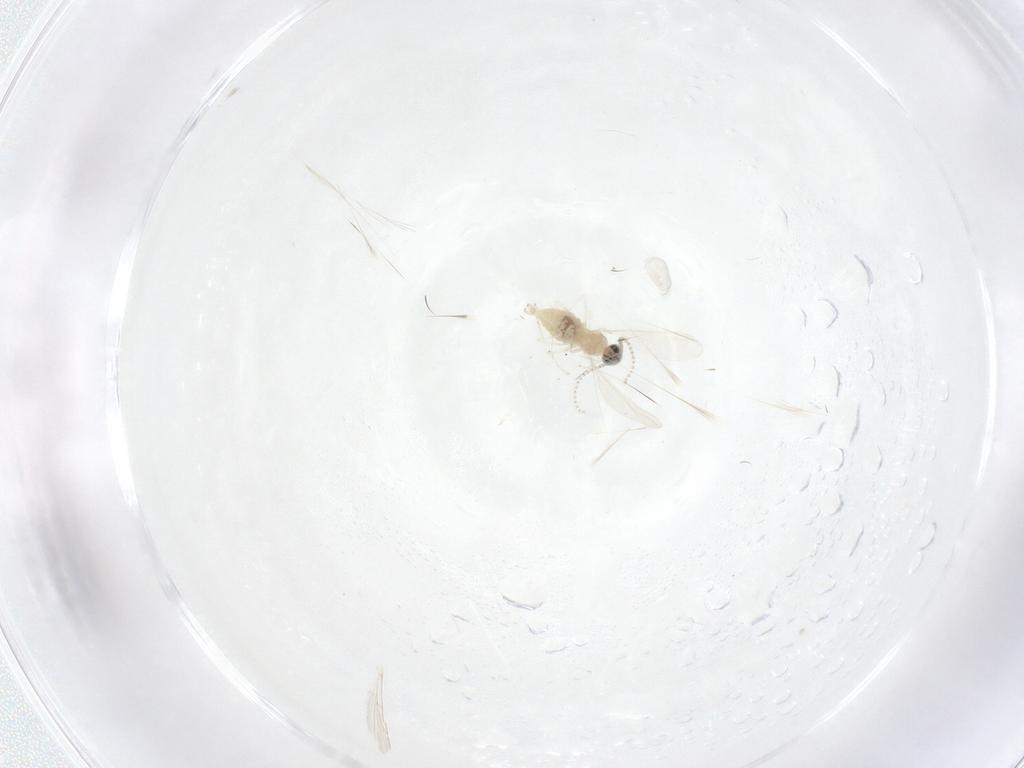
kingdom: Animalia
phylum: Arthropoda
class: Insecta
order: Diptera
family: Cecidomyiidae
